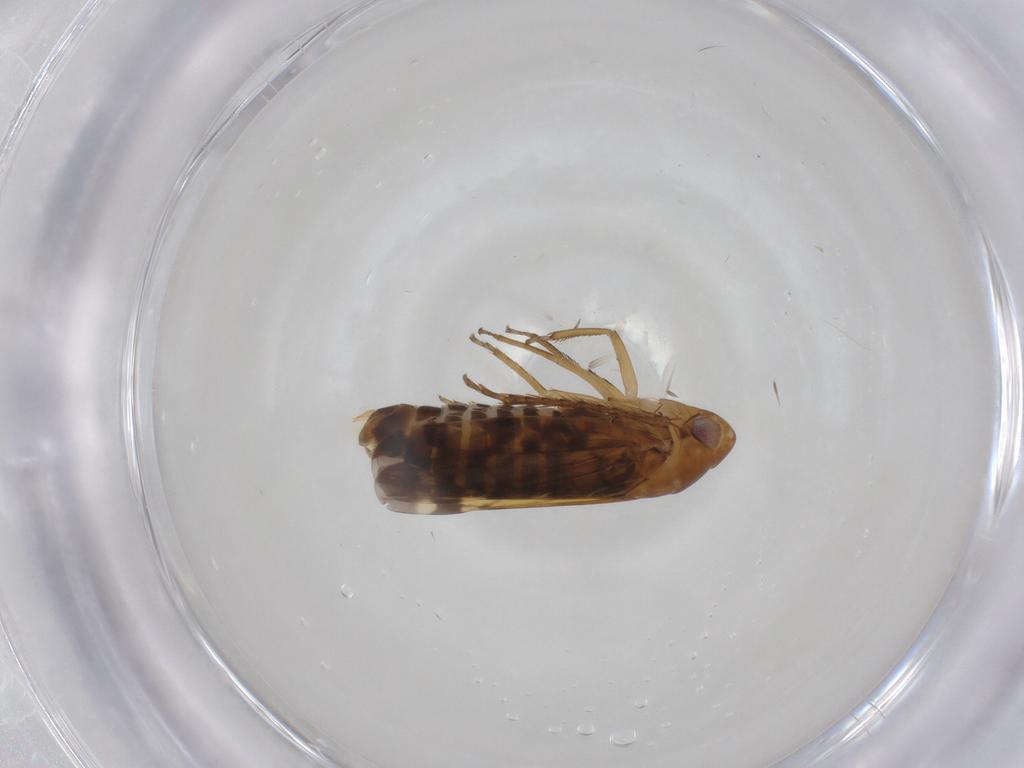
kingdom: Animalia
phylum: Arthropoda
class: Insecta
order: Hemiptera
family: Cicadellidae
